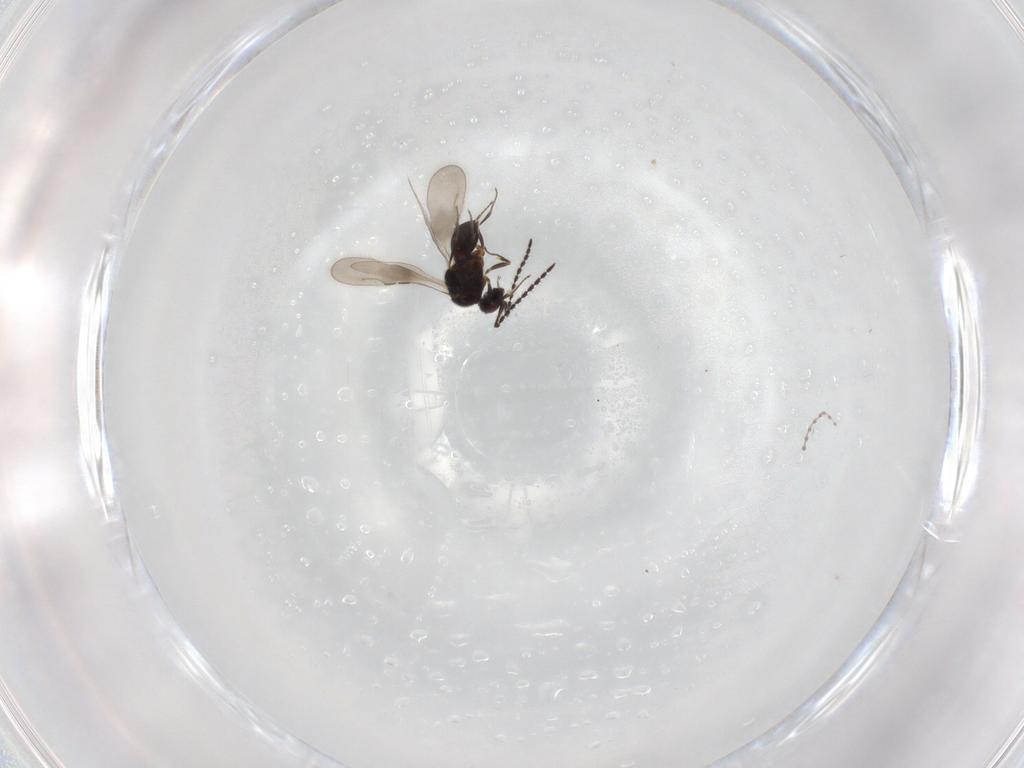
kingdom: Animalia
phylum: Arthropoda
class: Insecta
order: Hymenoptera
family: Ceraphronidae
